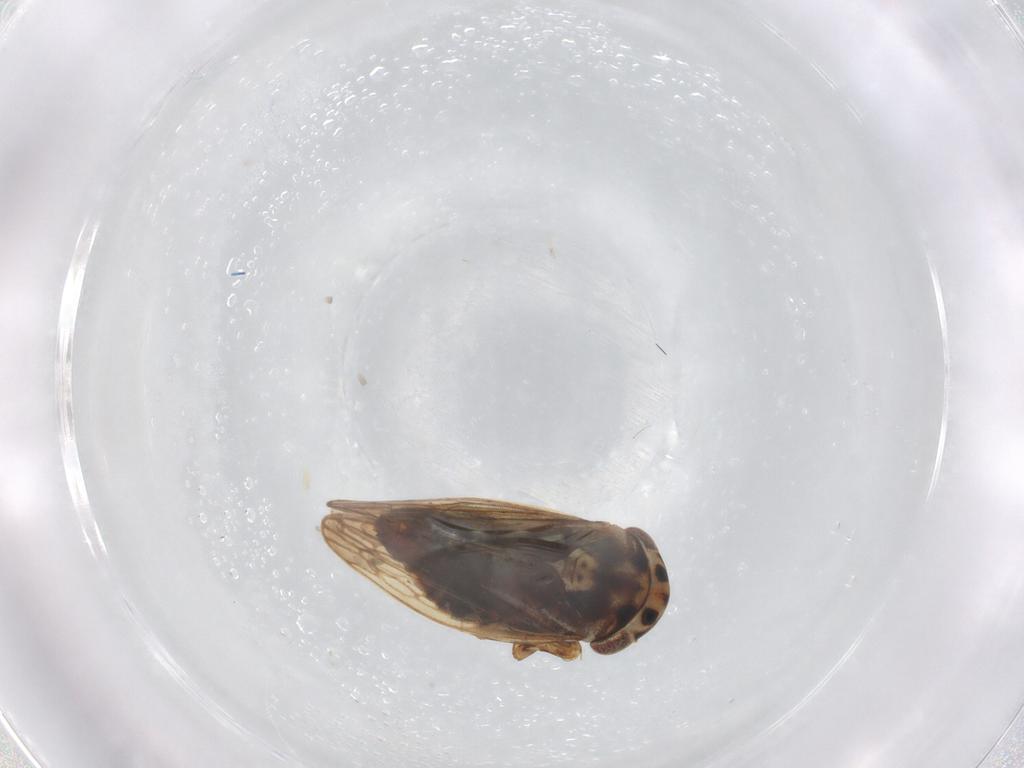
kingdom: Animalia
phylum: Arthropoda
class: Insecta
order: Hemiptera
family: Cicadellidae
